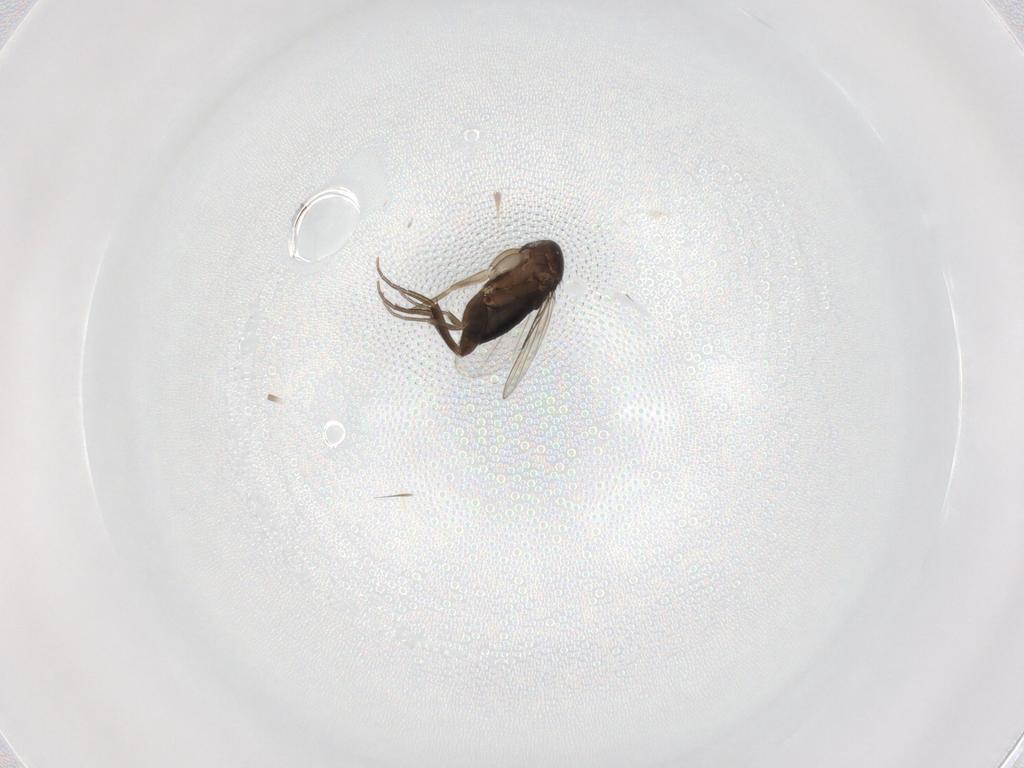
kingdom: Animalia
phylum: Arthropoda
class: Insecta
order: Diptera
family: Phoridae
